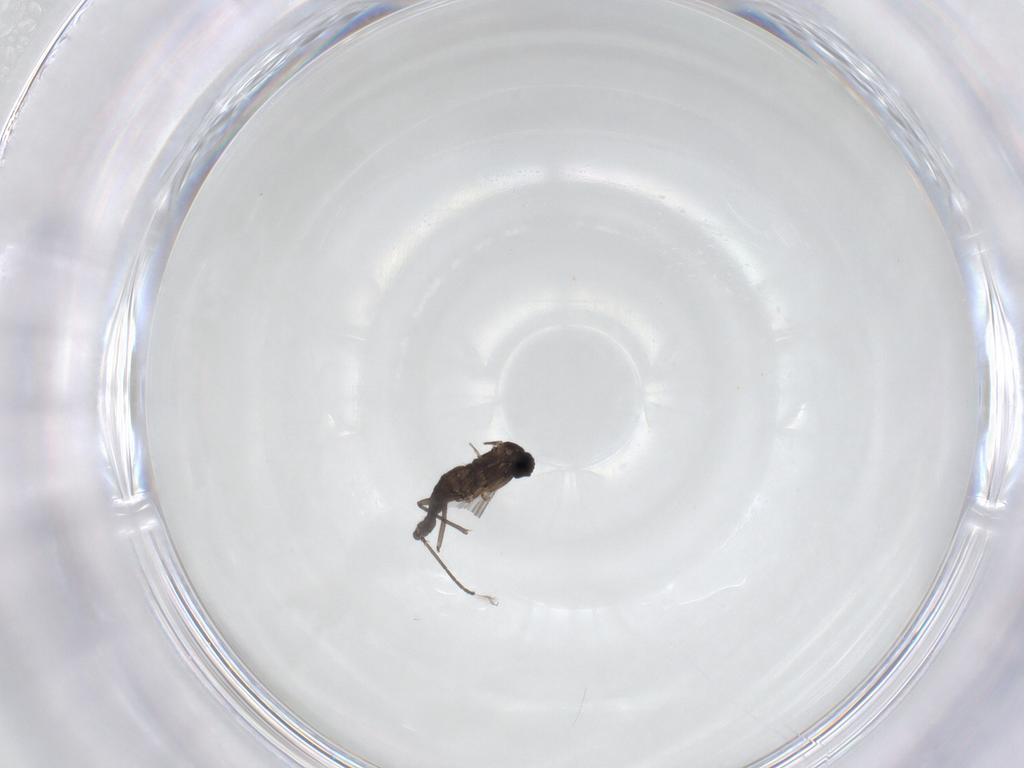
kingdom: Animalia
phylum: Arthropoda
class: Insecta
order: Diptera
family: Sciaridae
